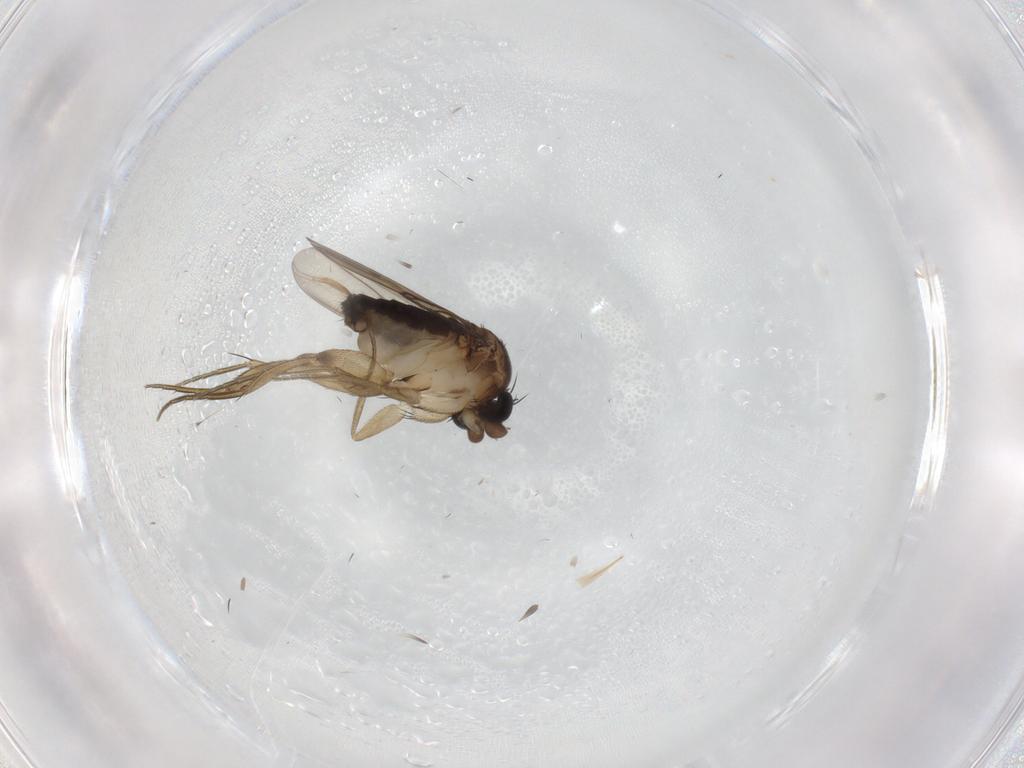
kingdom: Animalia
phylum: Arthropoda
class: Insecta
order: Diptera
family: Phoridae
